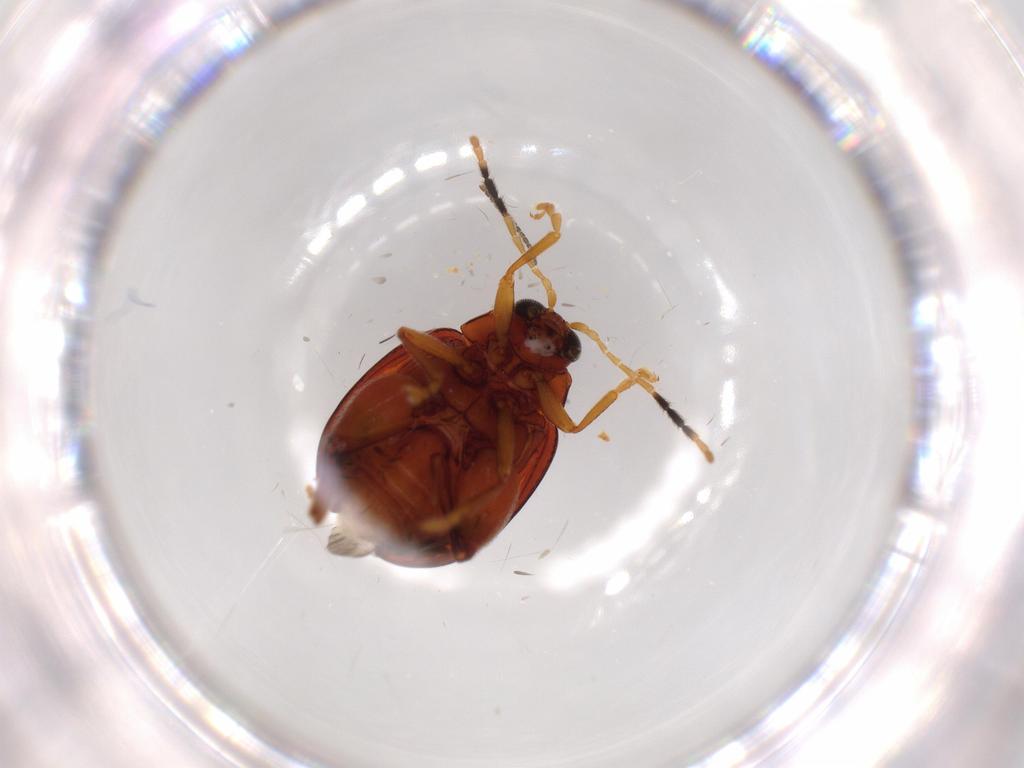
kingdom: Animalia
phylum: Arthropoda
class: Insecta
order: Coleoptera
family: Chrysomelidae
